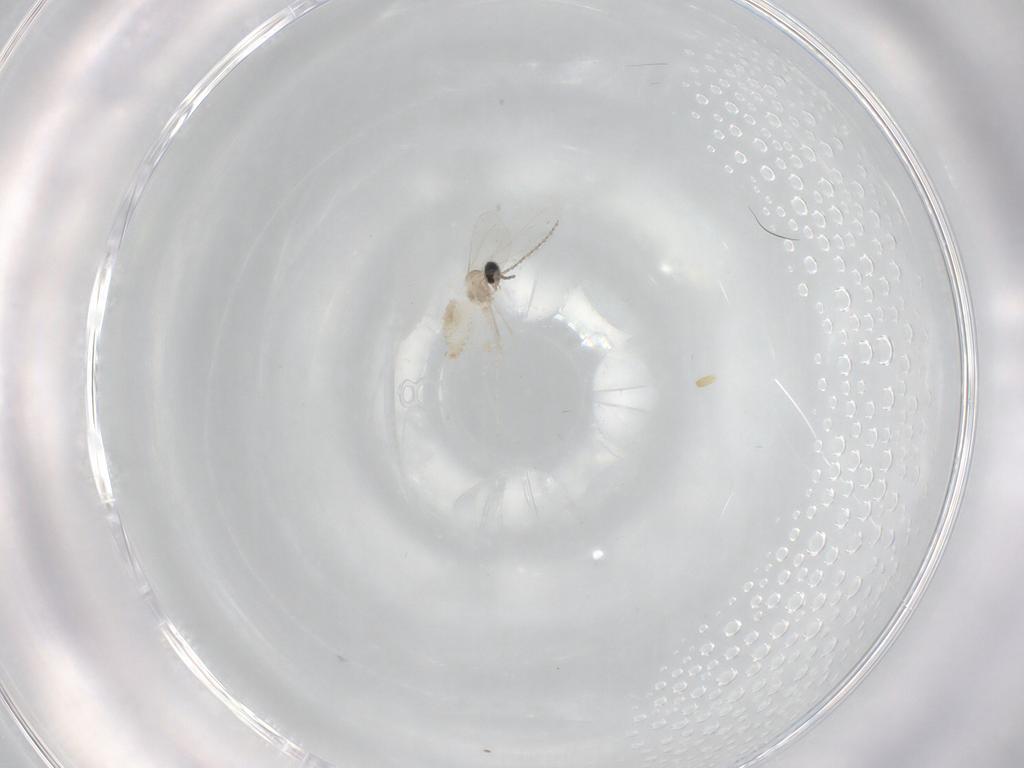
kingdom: Animalia
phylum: Arthropoda
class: Insecta
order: Diptera
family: Cecidomyiidae
